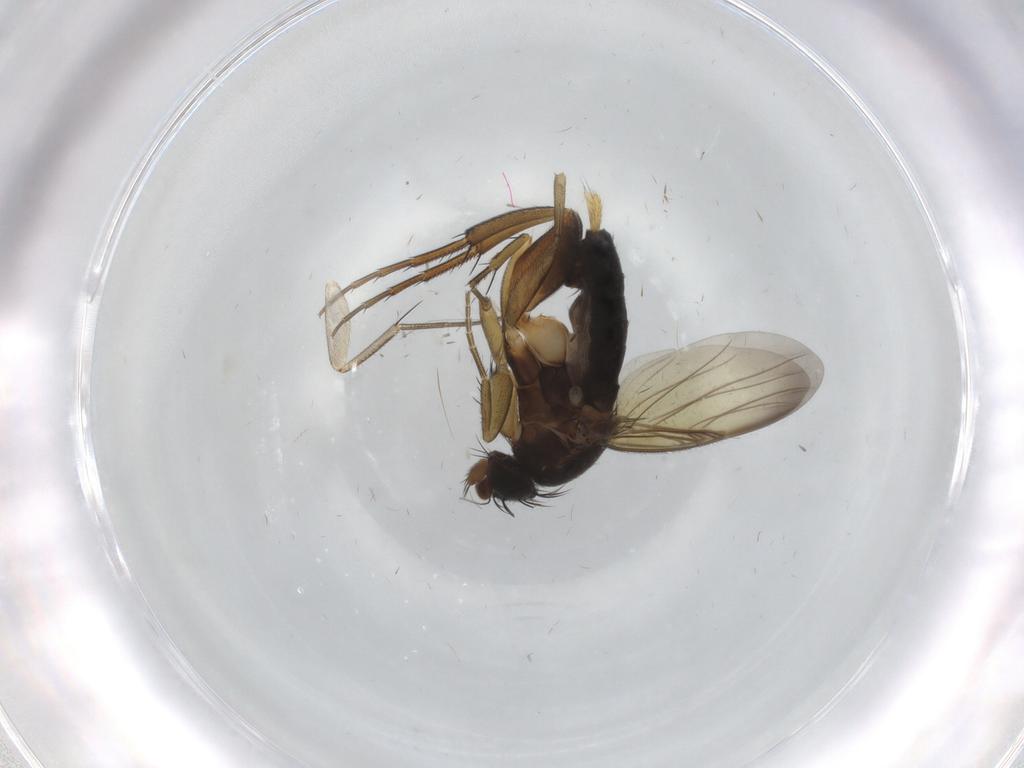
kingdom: Animalia
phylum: Arthropoda
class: Insecta
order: Diptera
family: Phoridae
